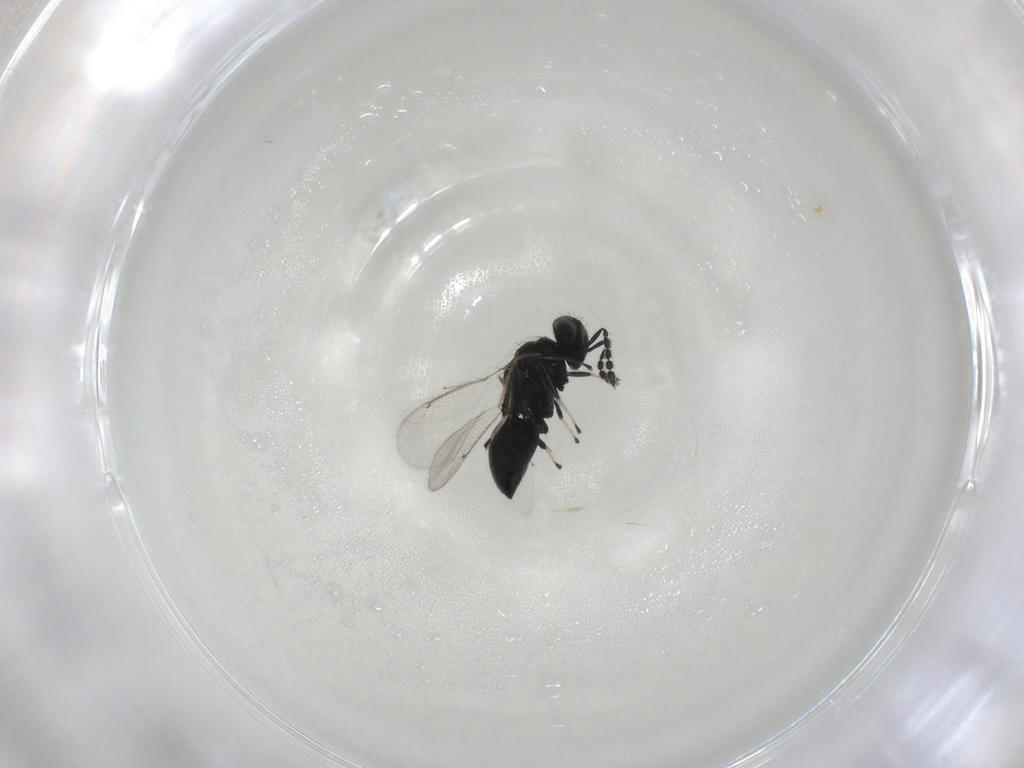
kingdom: Animalia
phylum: Arthropoda
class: Insecta
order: Hymenoptera
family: Eulophidae
